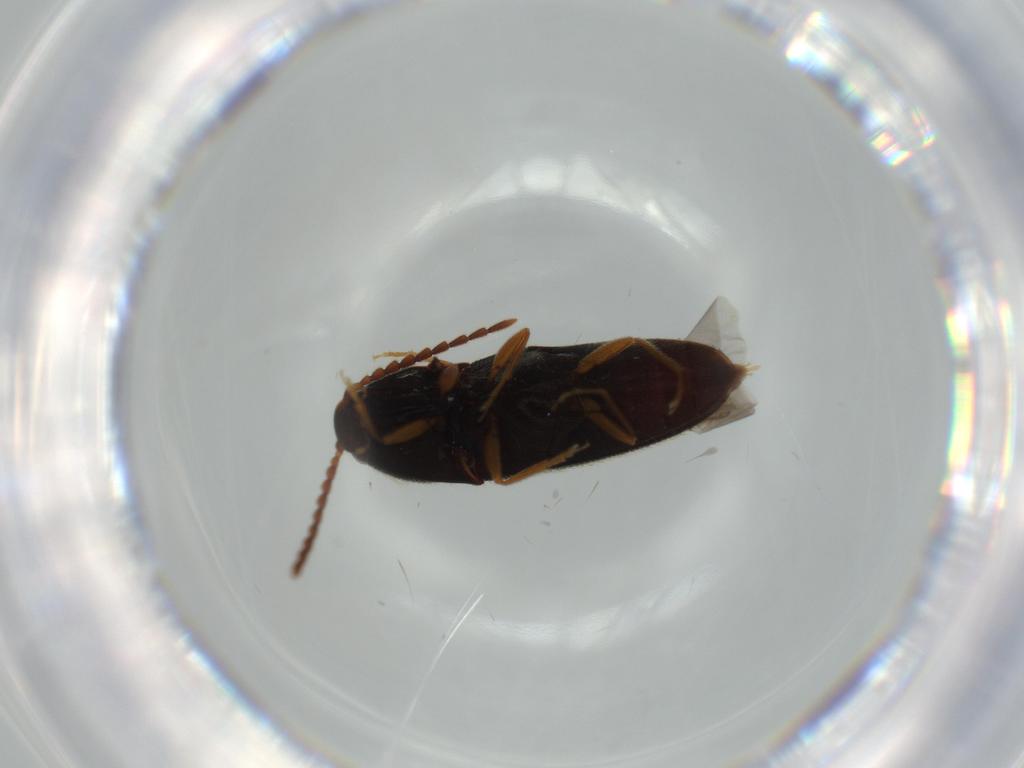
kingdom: Animalia
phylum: Arthropoda
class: Insecta
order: Coleoptera
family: Elateridae
